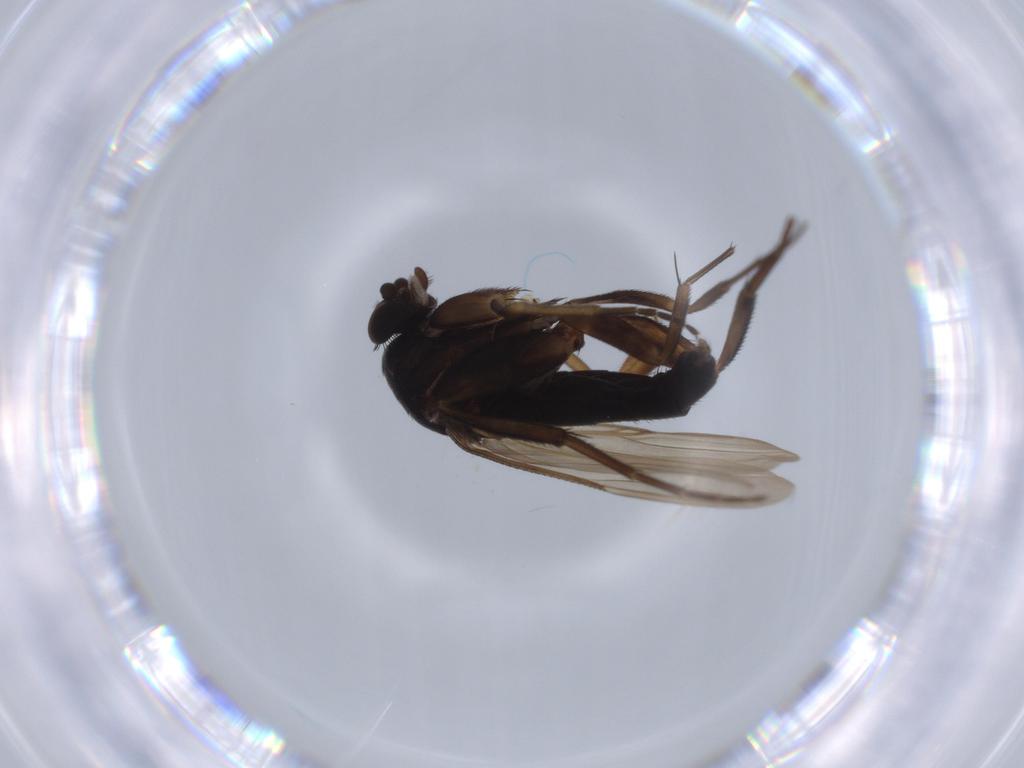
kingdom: Animalia
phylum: Arthropoda
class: Insecta
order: Diptera
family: Phoridae
